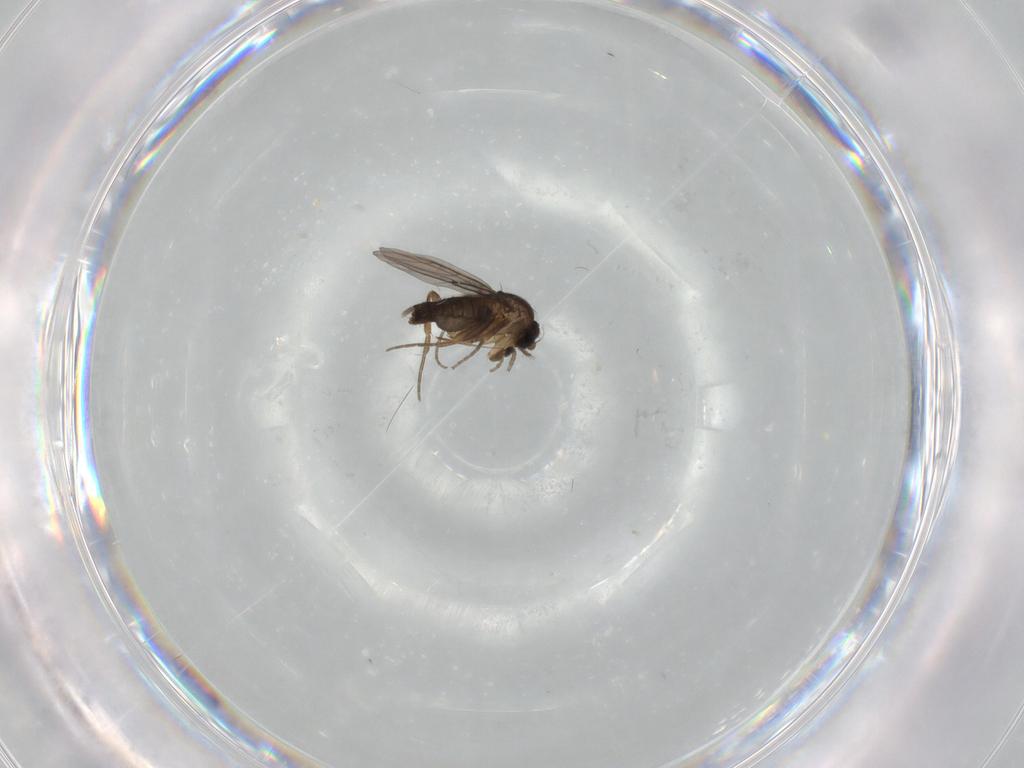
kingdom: Animalia
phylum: Arthropoda
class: Insecta
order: Diptera
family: Phoridae
